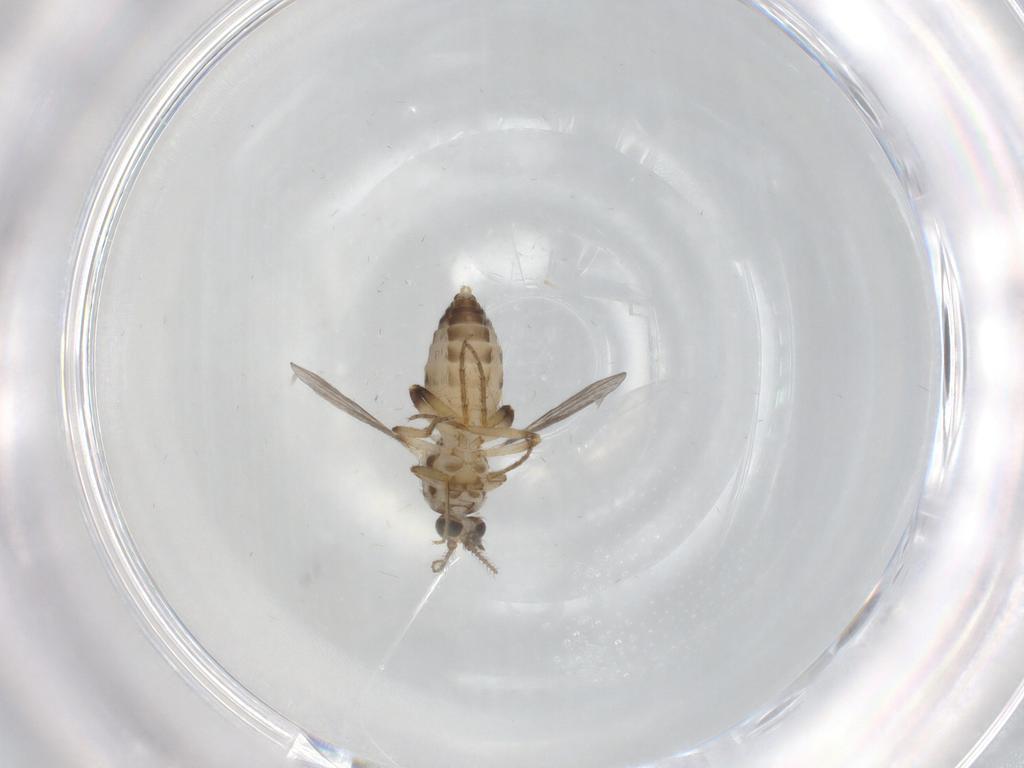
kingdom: Animalia
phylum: Arthropoda
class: Insecta
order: Diptera
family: Ceratopogonidae
